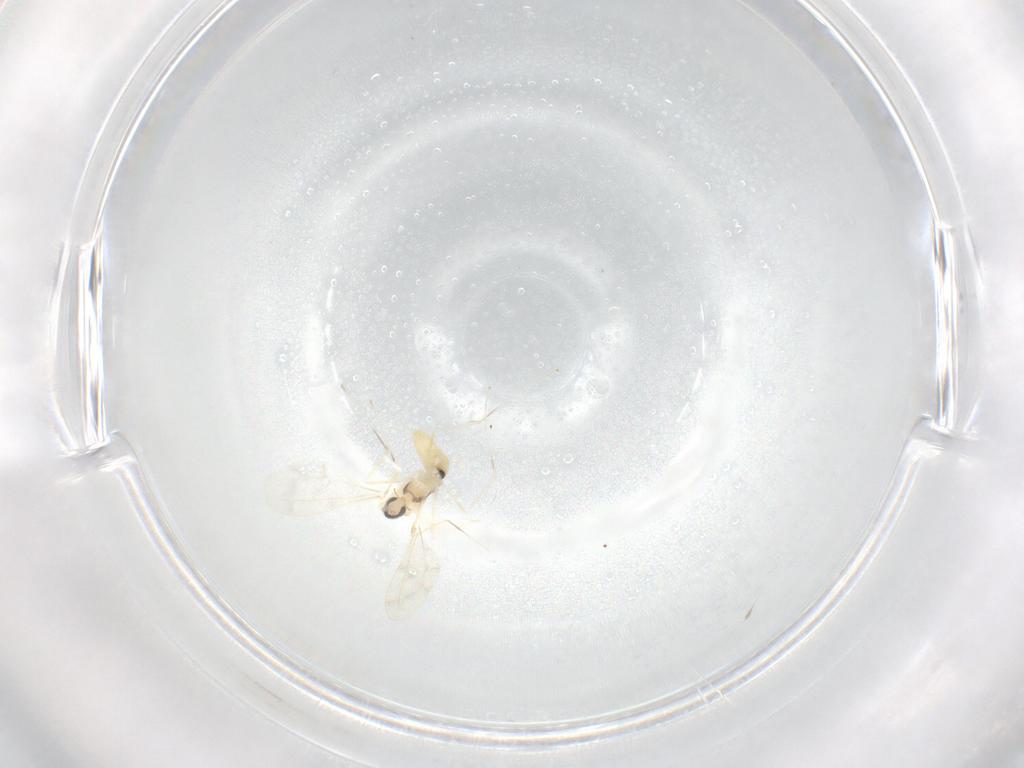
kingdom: Animalia
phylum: Arthropoda
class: Insecta
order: Diptera
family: Cecidomyiidae
